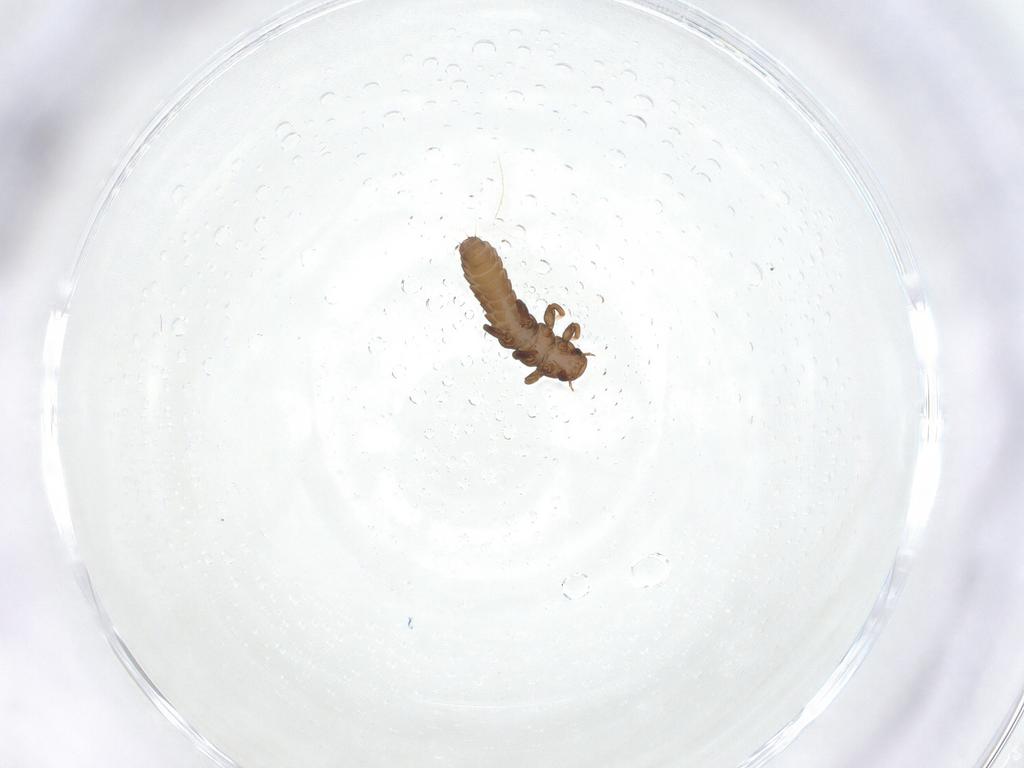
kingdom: Animalia
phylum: Arthropoda
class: Insecta
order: Coleoptera
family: Meloidae
